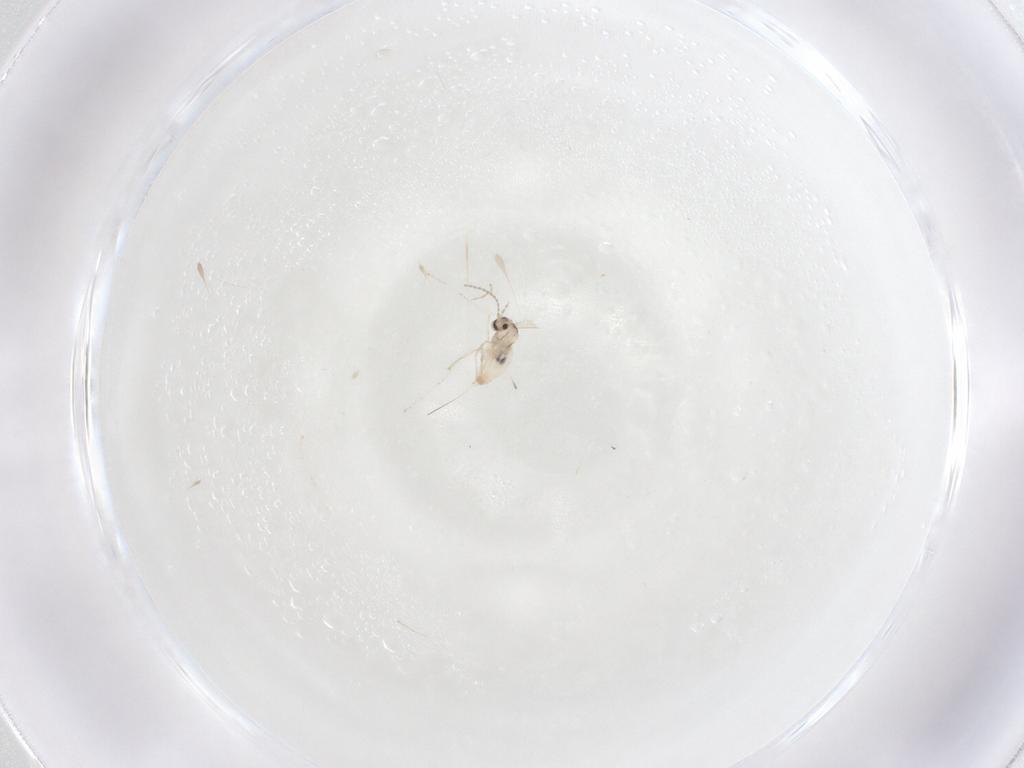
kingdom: Animalia
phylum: Arthropoda
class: Insecta
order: Diptera
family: Cecidomyiidae
